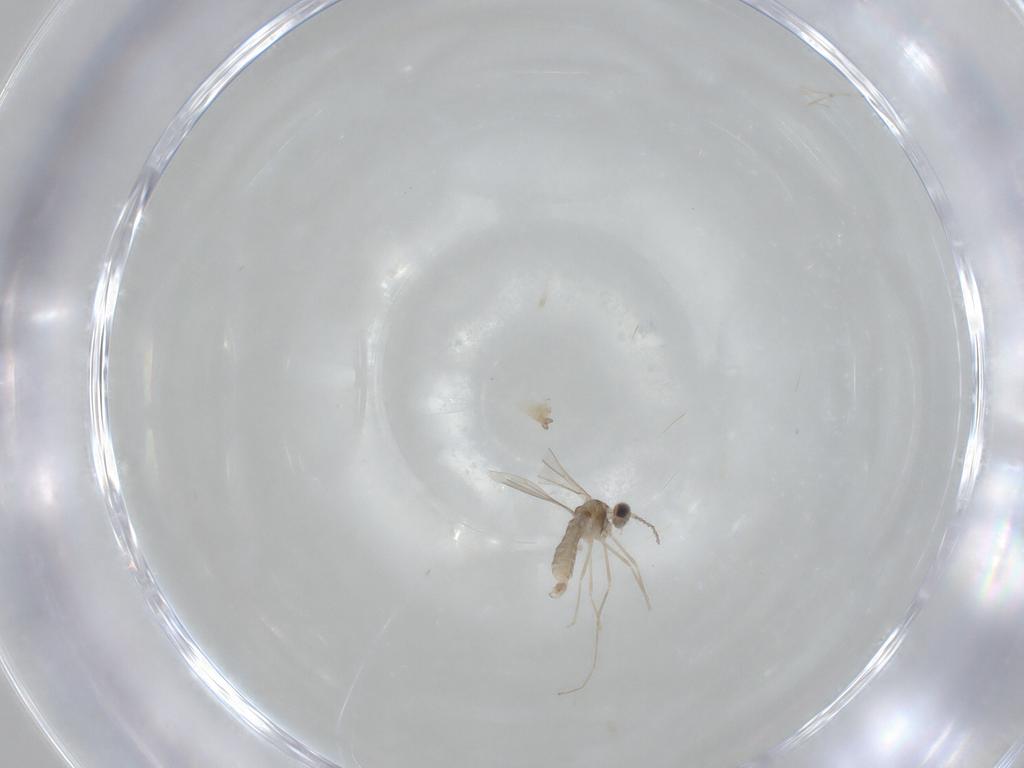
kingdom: Animalia
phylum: Arthropoda
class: Insecta
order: Diptera
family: Cecidomyiidae
